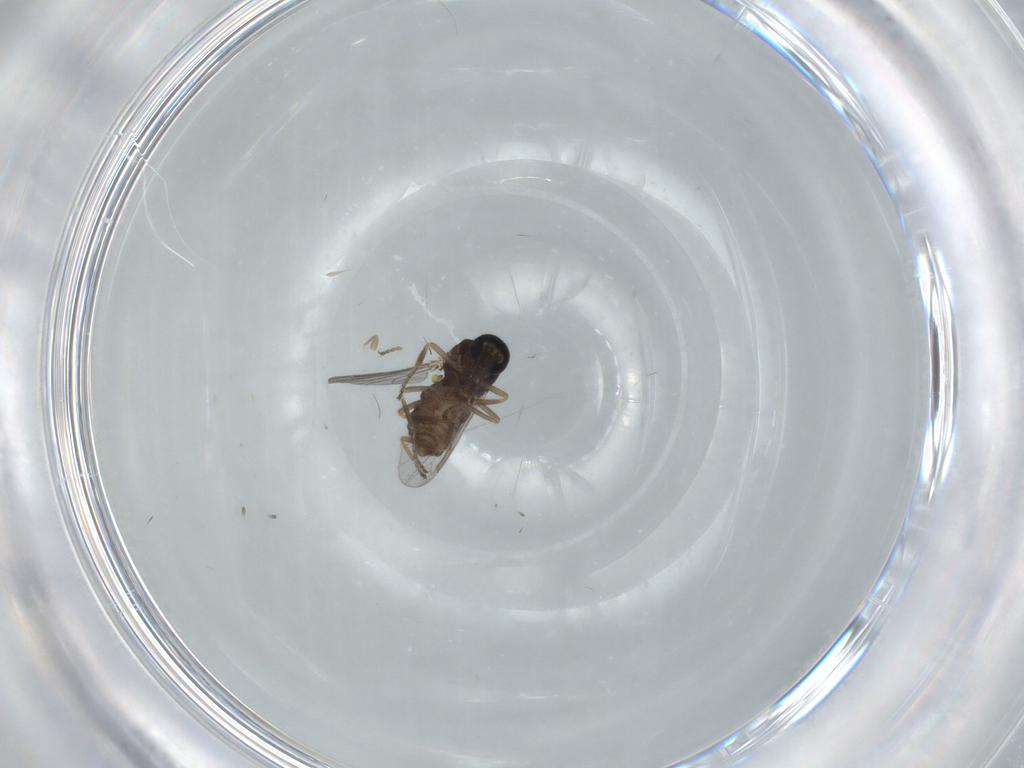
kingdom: Animalia
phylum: Arthropoda
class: Insecta
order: Diptera
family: Ceratopogonidae
